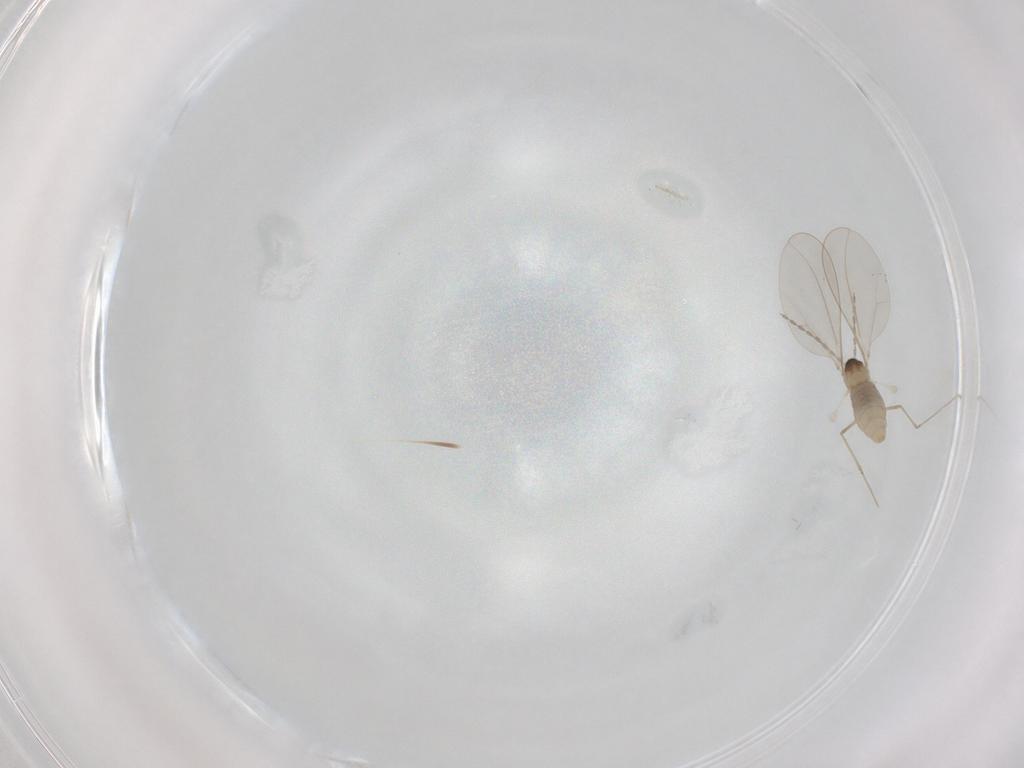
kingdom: Animalia
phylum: Arthropoda
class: Insecta
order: Diptera
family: Cecidomyiidae
